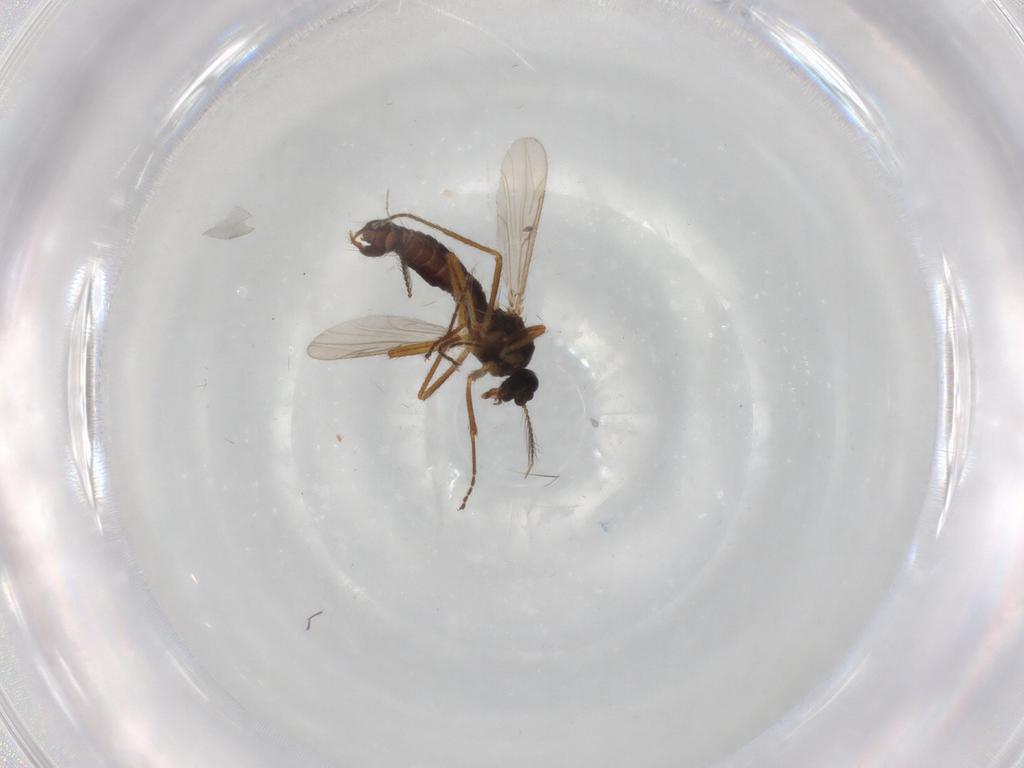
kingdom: Animalia
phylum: Arthropoda
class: Insecta
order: Diptera
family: Ceratopogonidae
